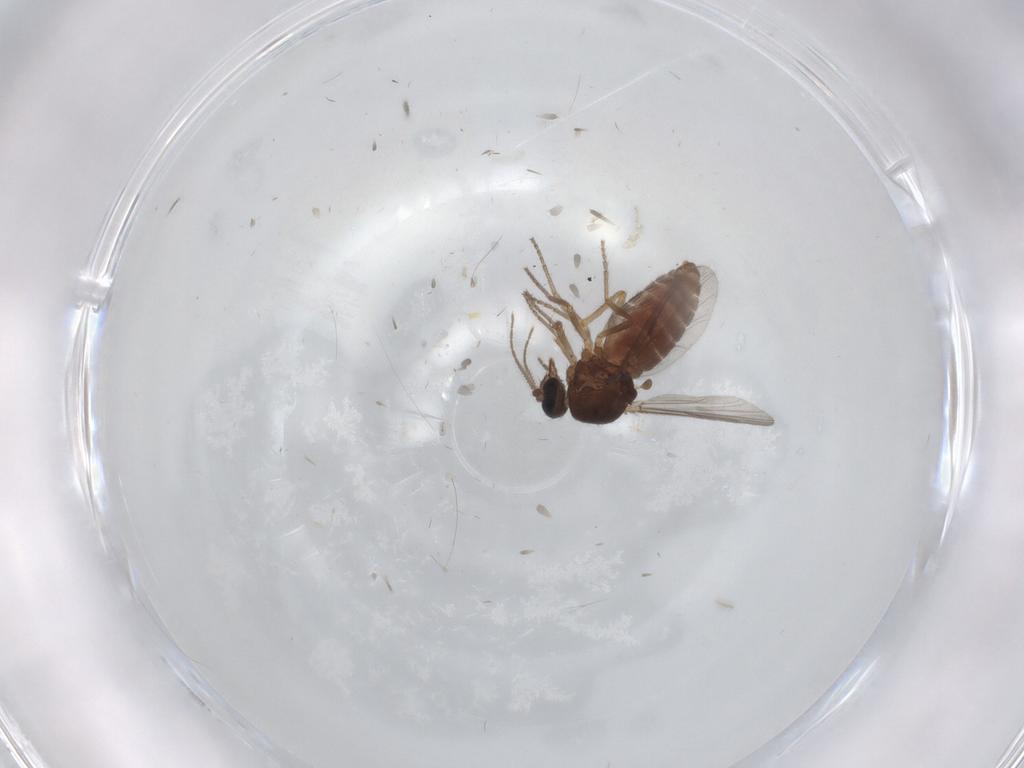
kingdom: Animalia
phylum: Arthropoda
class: Insecta
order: Diptera
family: Ceratopogonidae
